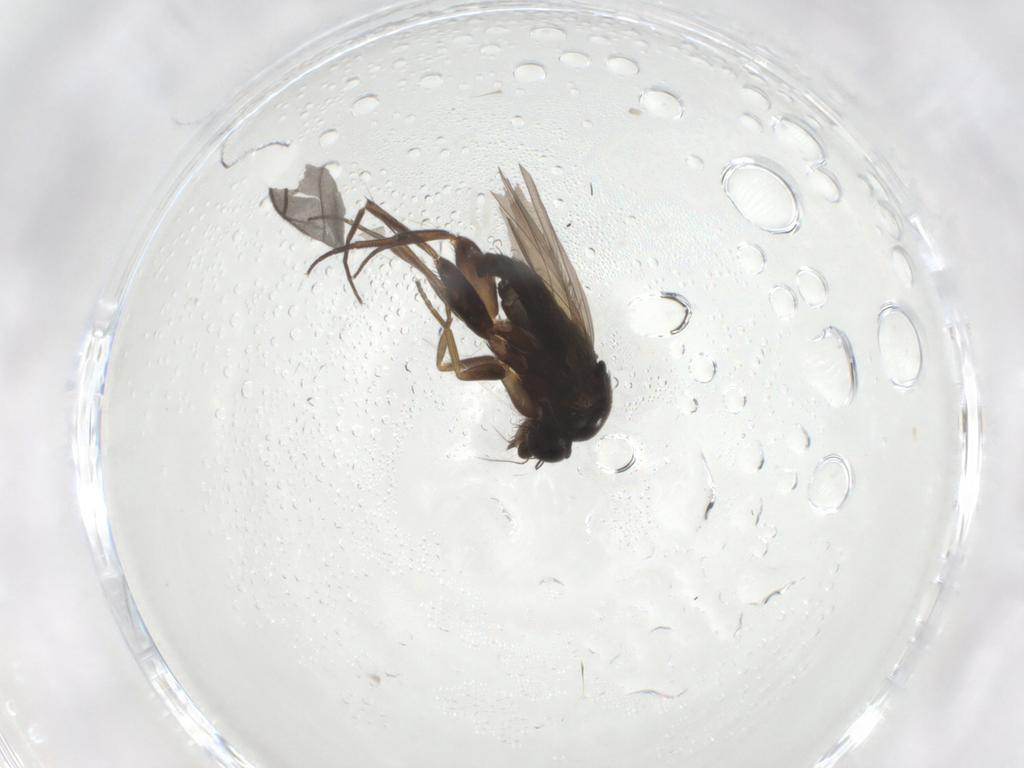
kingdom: Animalia
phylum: Arthropoda
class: Insecta
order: Diptera
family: Phoridae
